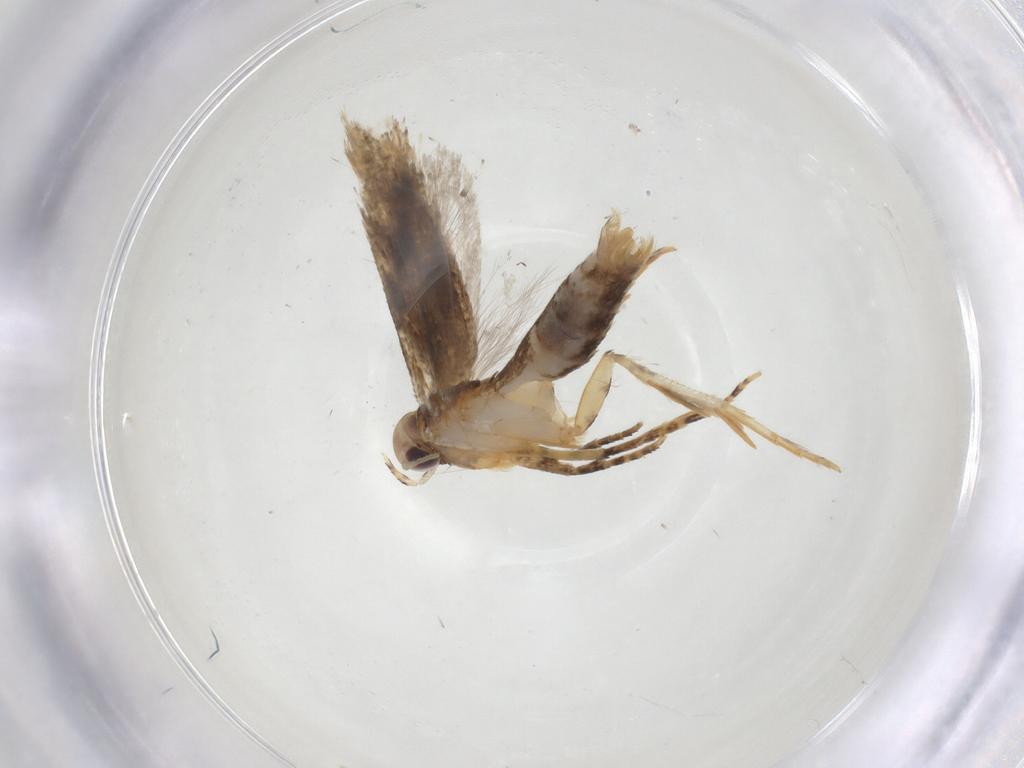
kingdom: Animalia
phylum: Arthropoda
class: Insecta
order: Lepidoptera
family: Gelechiidae
